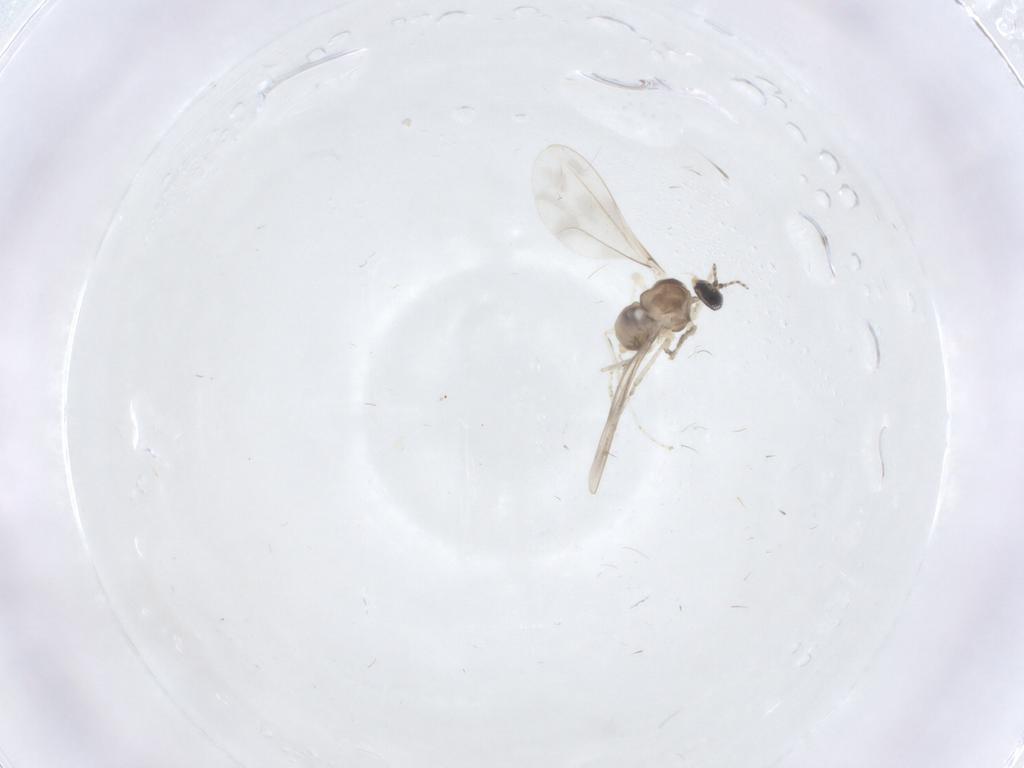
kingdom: Animalia
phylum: Arthropoda
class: Insecta
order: Diptera
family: Cecidomyiidae
